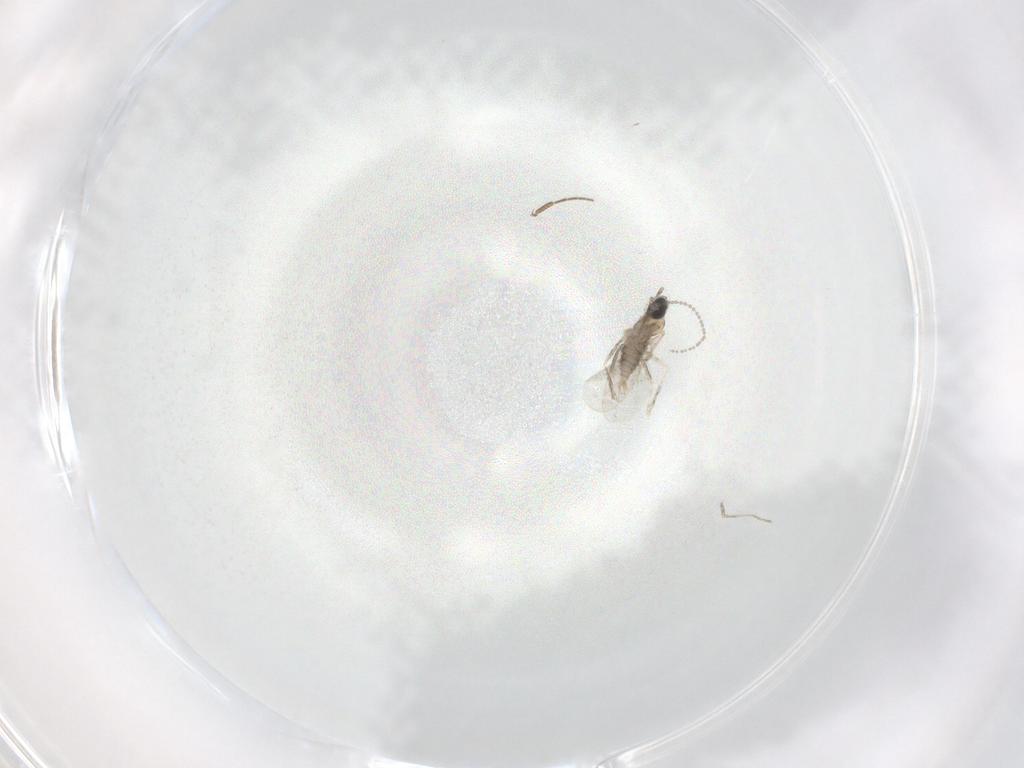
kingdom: Animalia
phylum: Arthropoda
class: Insecta
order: Diptera
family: Cecidomyiidae
